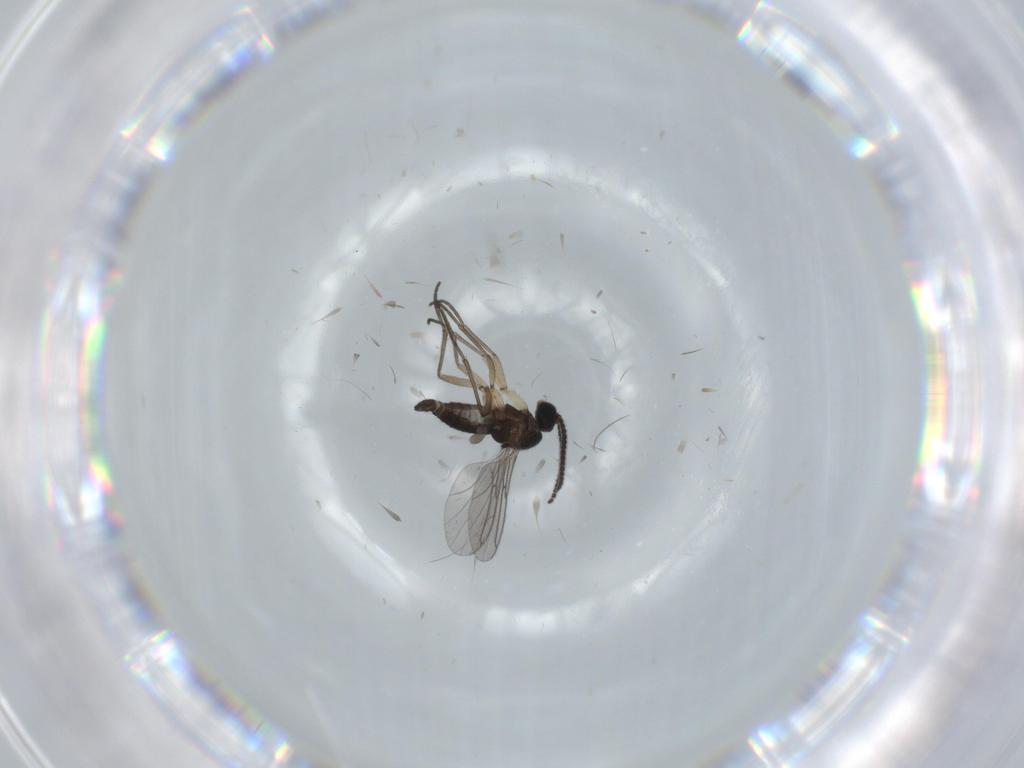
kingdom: Animalia
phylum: Arthropoda
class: Insecta
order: Diptera
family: Sciaridae
